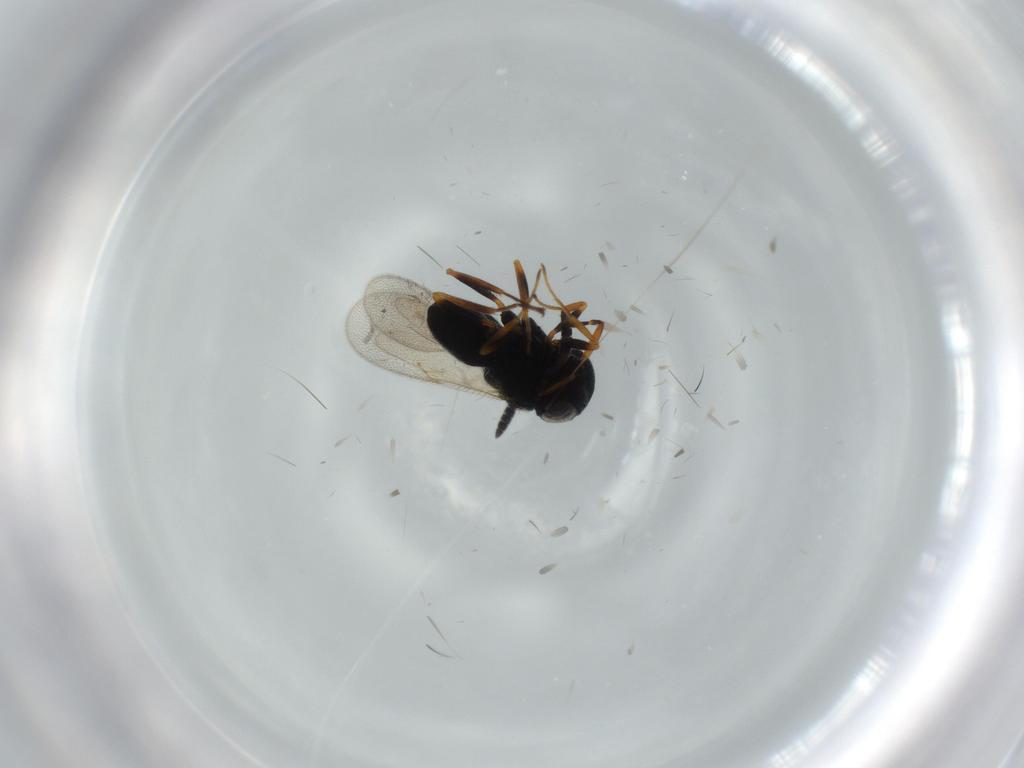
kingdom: Animalia
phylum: Arthropoda
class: Insecta
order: Hymenoptera
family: Scelionidae
